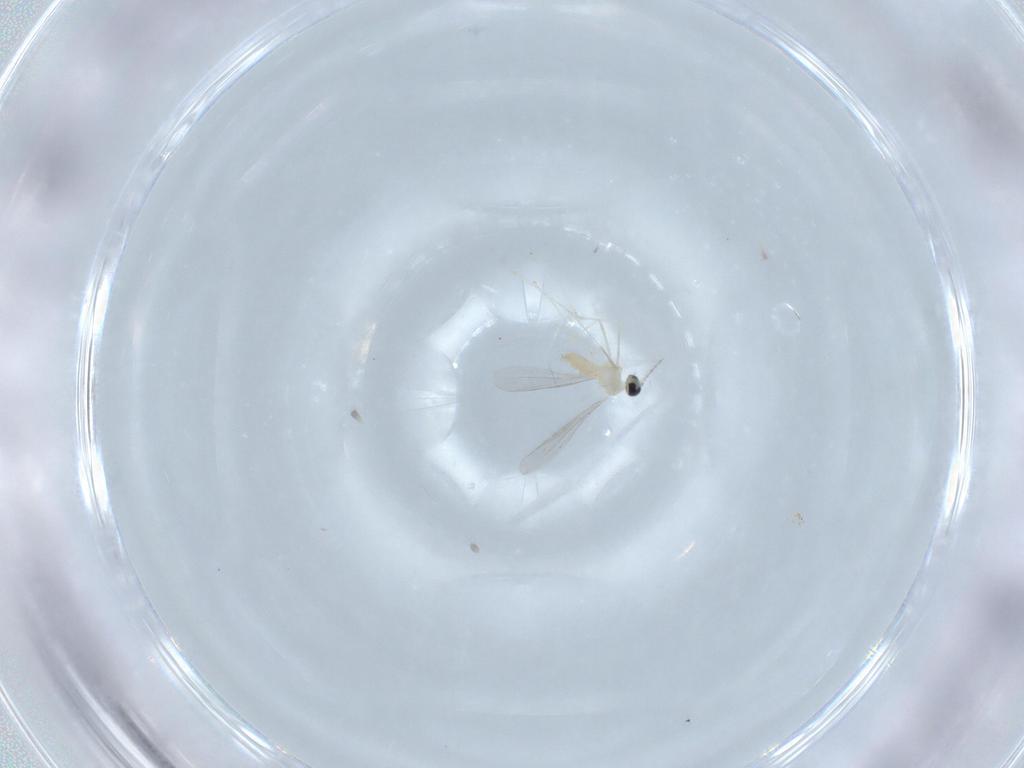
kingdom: Animalia
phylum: Arthropoda
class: Insecta
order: Diptera
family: Cecidomyiidae
